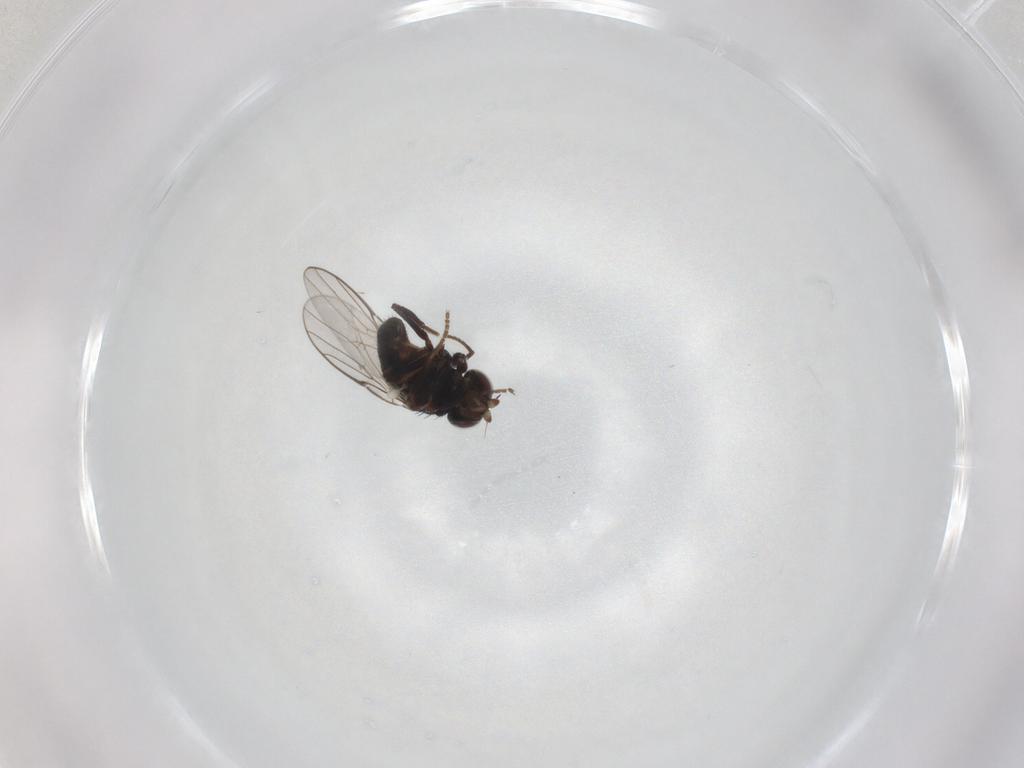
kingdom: Animalia
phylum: Arthropoda
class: Insecta
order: Diptera
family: Chloropidae
